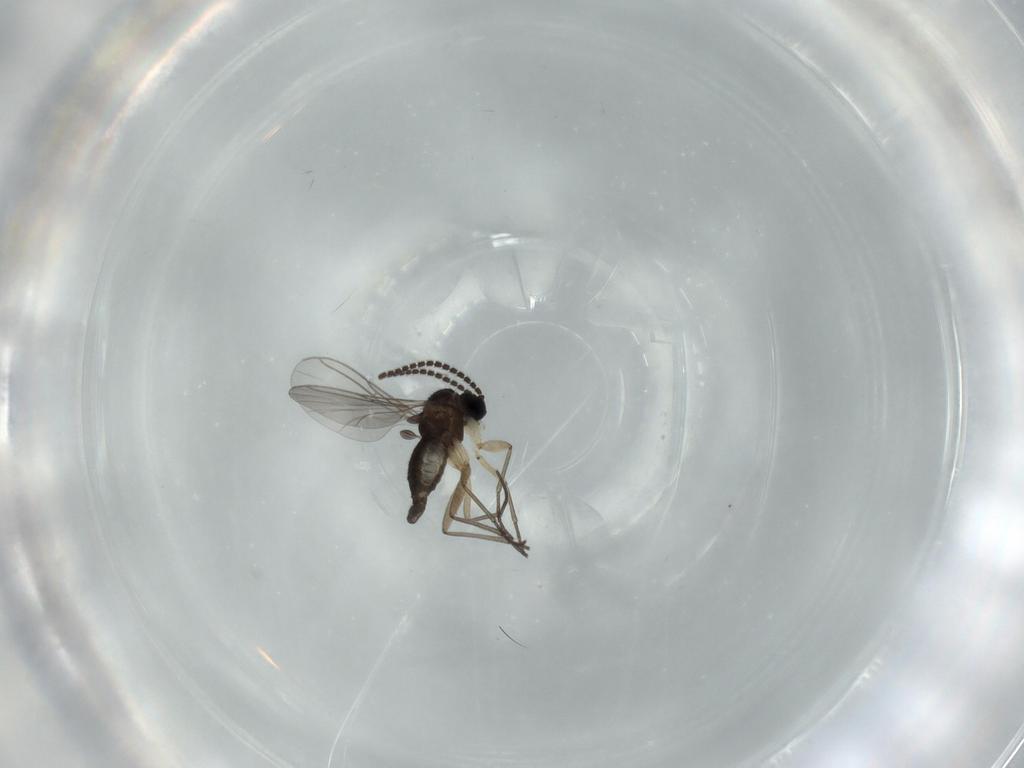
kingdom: Animalia
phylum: Arthropoda
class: Insecta
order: Diptera
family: Sciaridae
